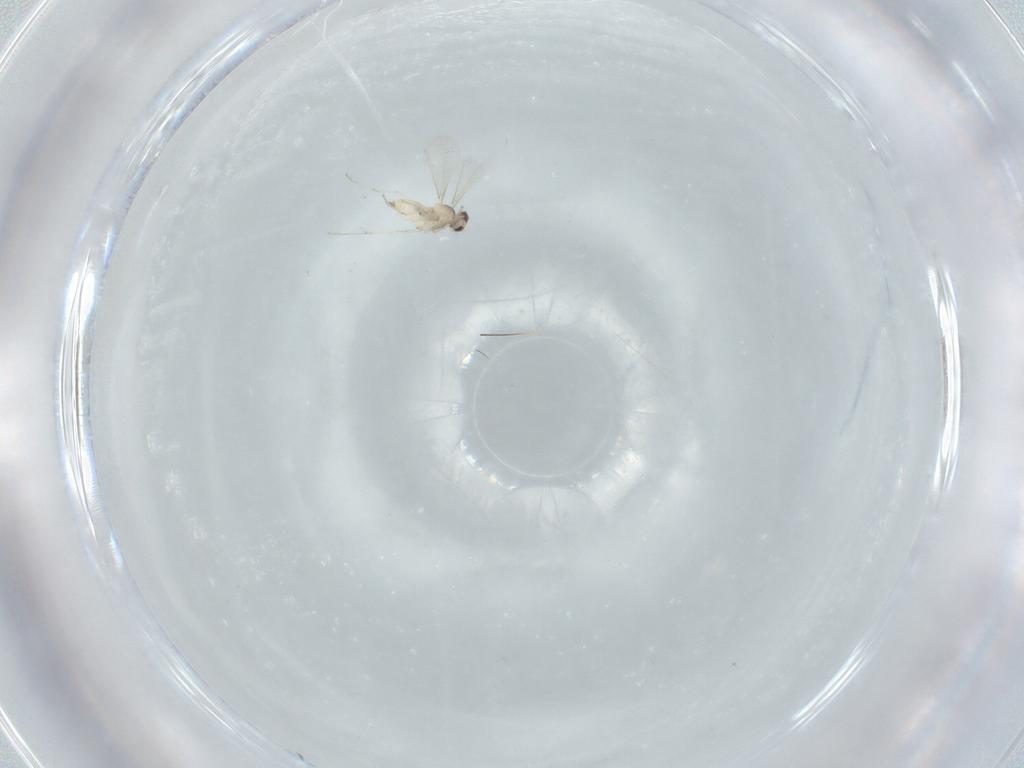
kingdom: Animalia
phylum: Arthropoda
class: Insecta
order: Diptera
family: Cecidomyiidae
